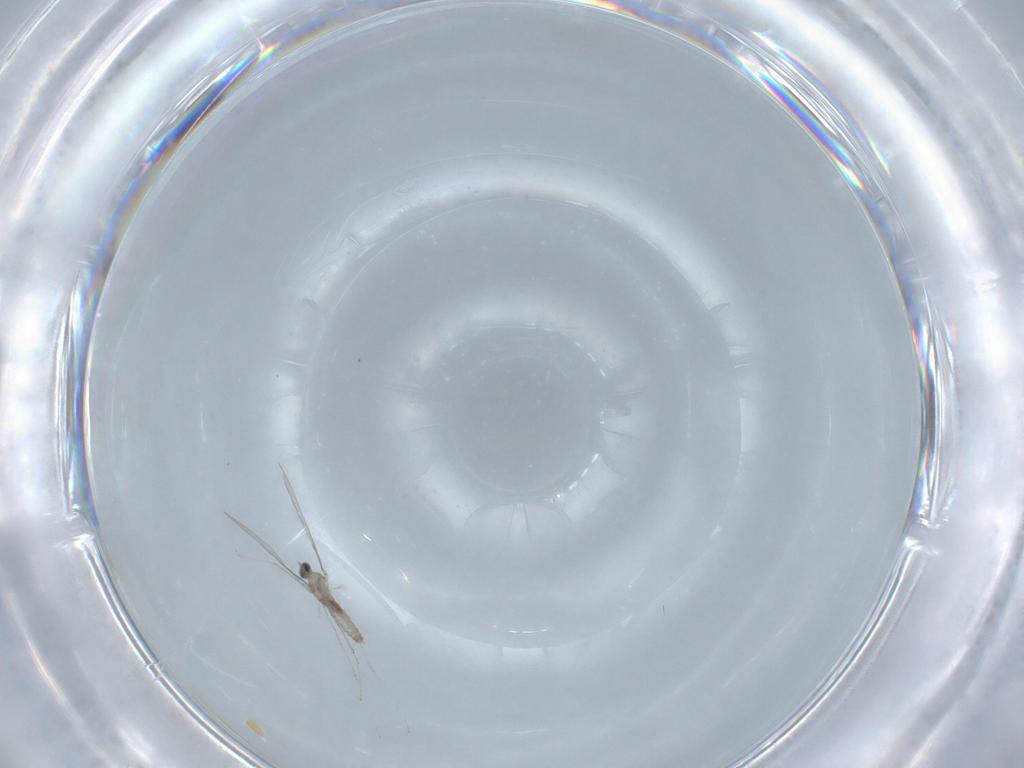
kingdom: Animalia
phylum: Arthropoda
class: Insecta
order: Diptera
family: Cecidomyiidae
